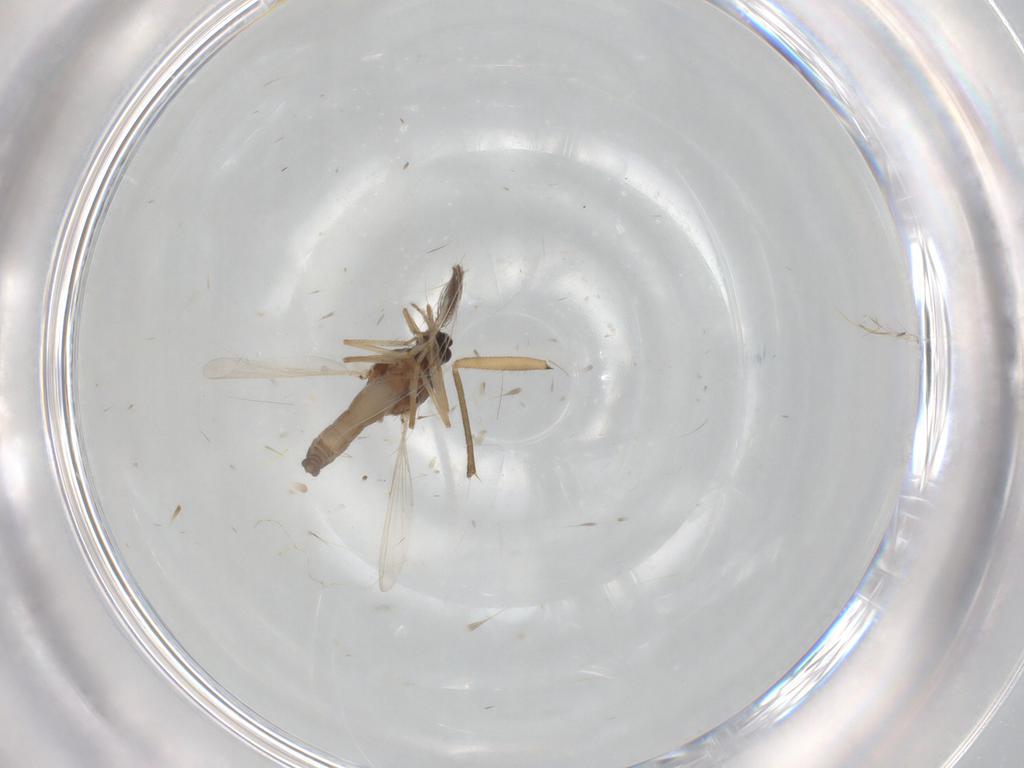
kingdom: Animalia
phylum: Arthropoda
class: Insecta
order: Diptera
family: Sciaridae
